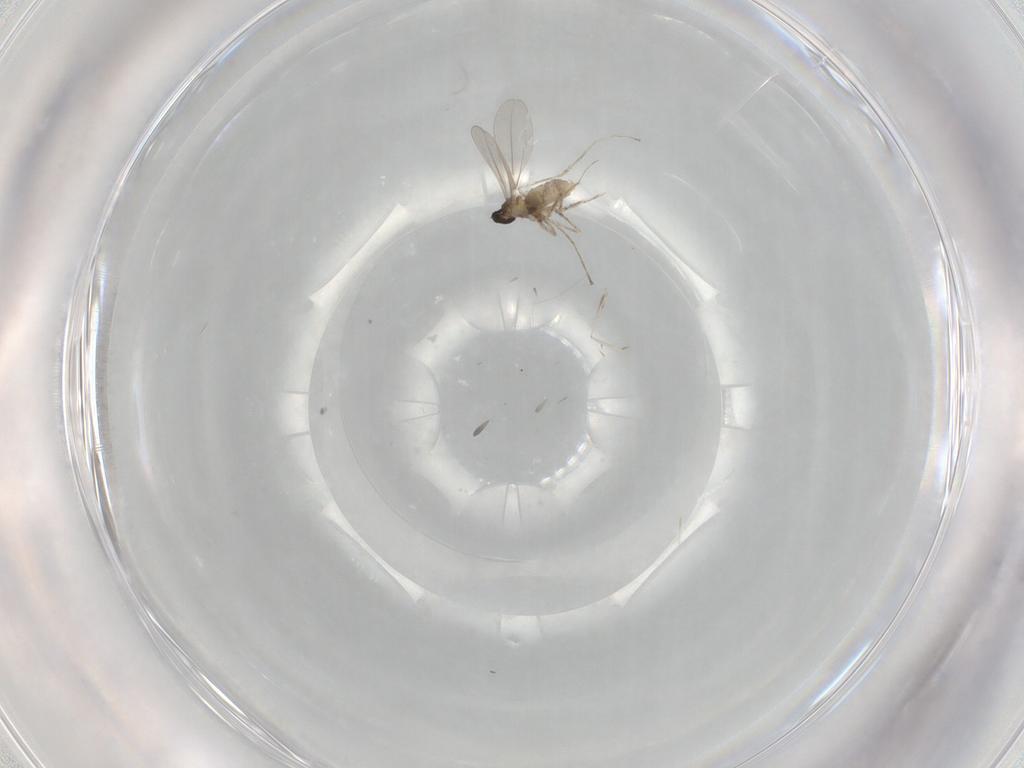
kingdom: Animalia
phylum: Arthropoda
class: Insecta
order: Diptera
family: Cecidomyiidae
